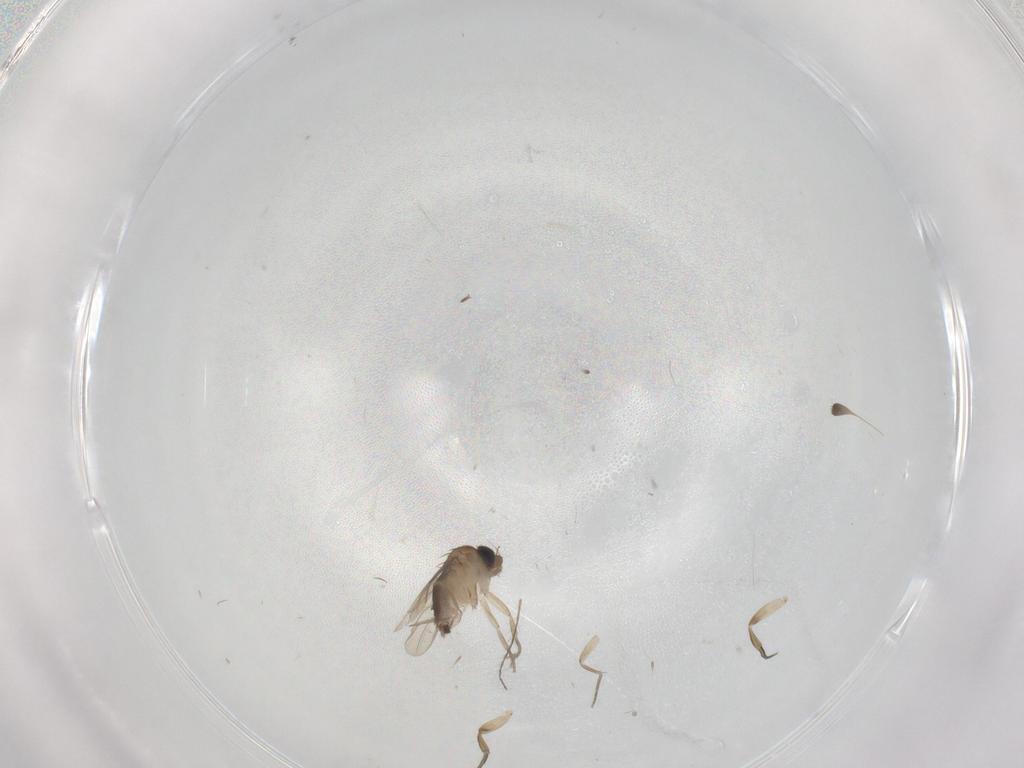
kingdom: Animalia
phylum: Arthropoda
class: Insecta
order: Diptera
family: Phoridae
